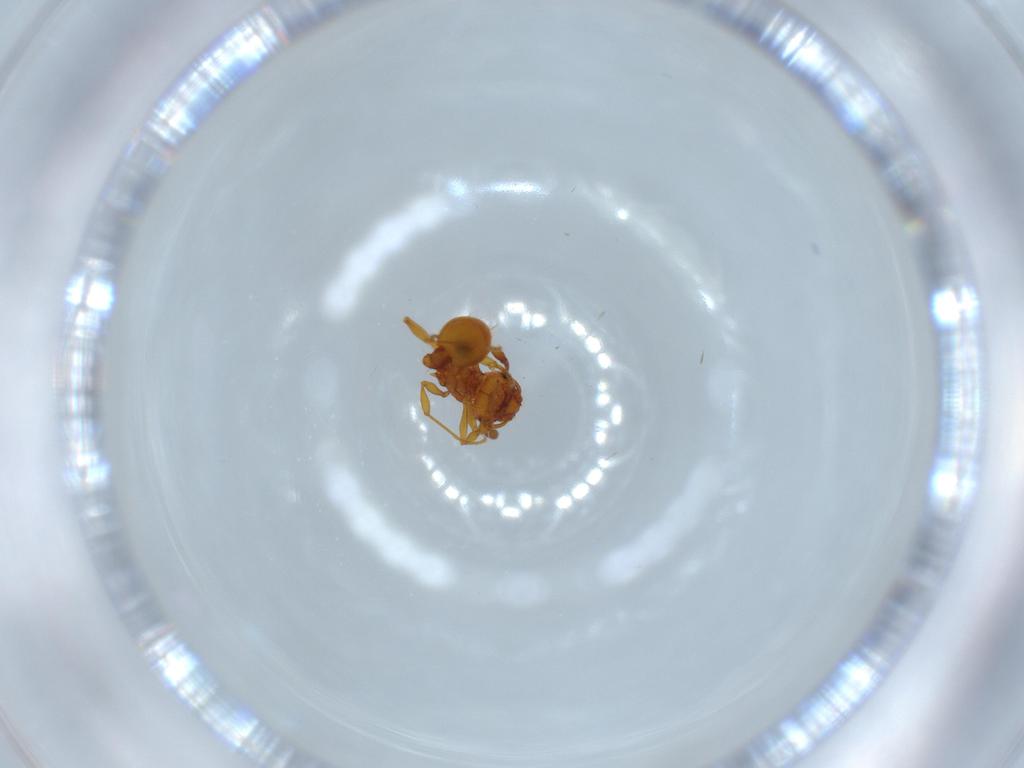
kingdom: Animalia
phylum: Arthropoda
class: Insecta
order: Hymenoptera
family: Formicidae
